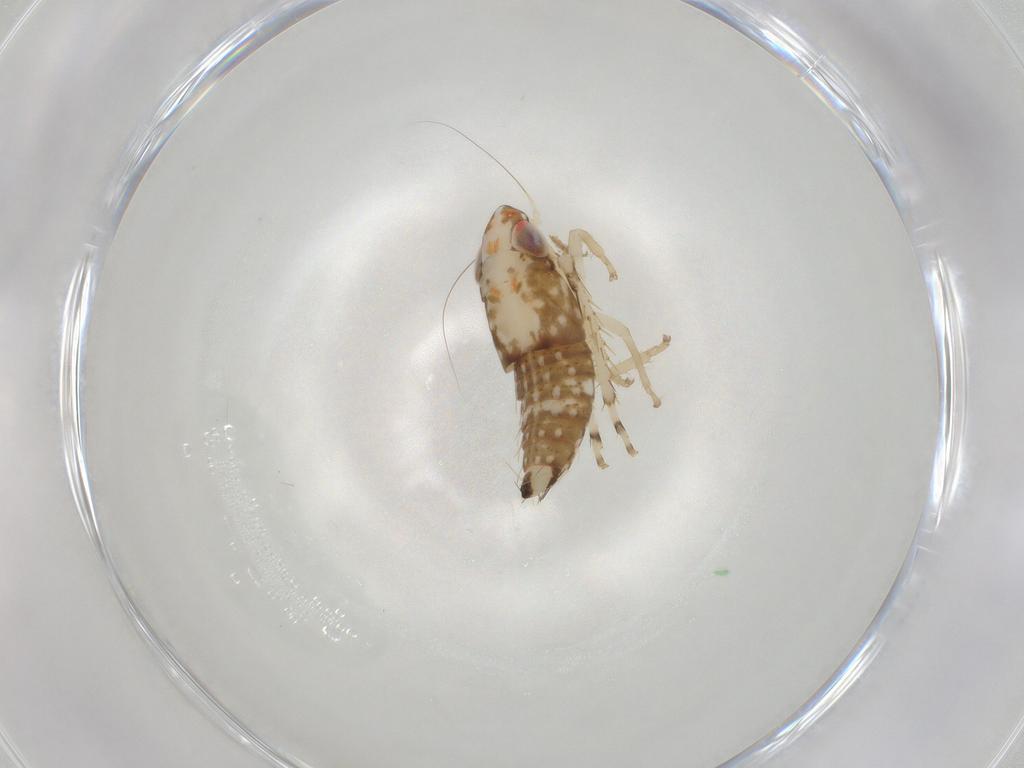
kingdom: Animalia
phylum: Arthropoda
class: Insecta
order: Hemiptera
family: Cicadellidae
